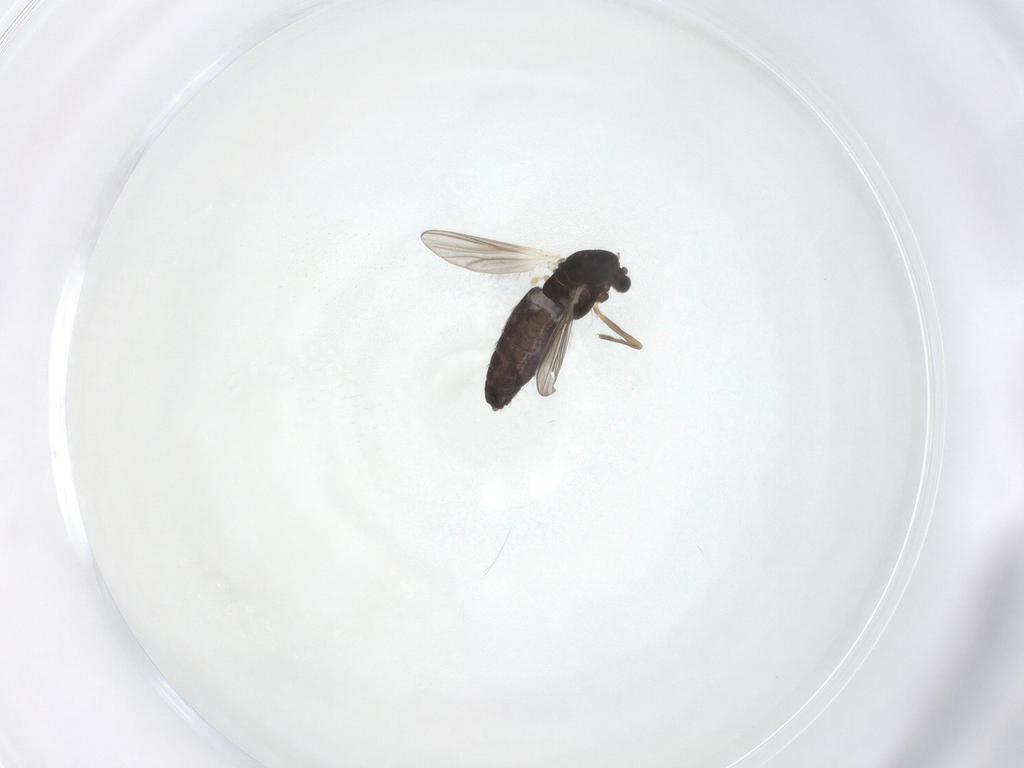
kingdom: Animalia
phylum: Arthropoda
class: Insecta
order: Diptera
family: Chironomidae
